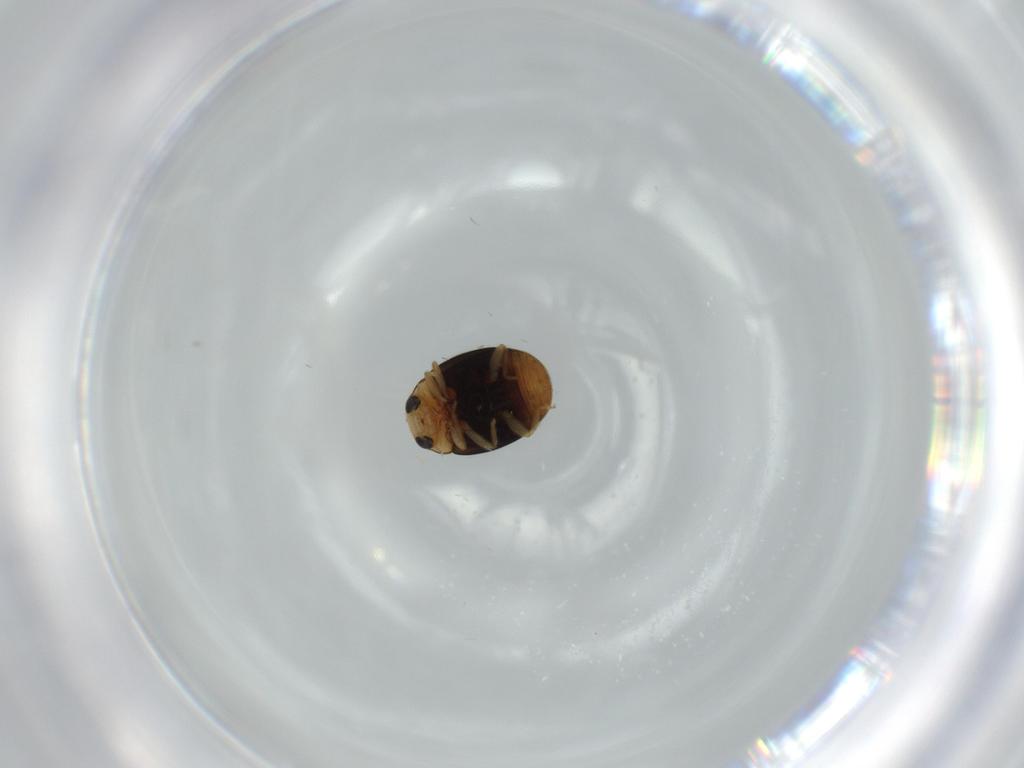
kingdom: Animalia
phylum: Arthropoda
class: Insecta
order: Coleoptera
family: Coccinellidae
